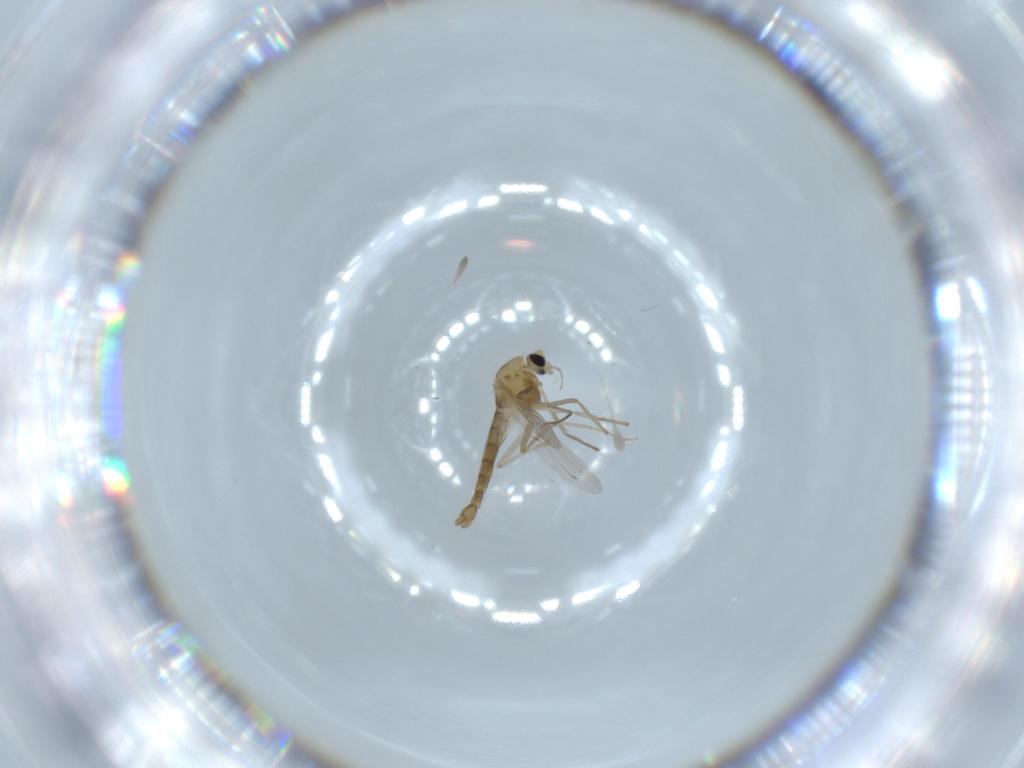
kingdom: Animalia
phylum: Arthropoda
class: Insecta
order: Diptera
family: Chironomidae
